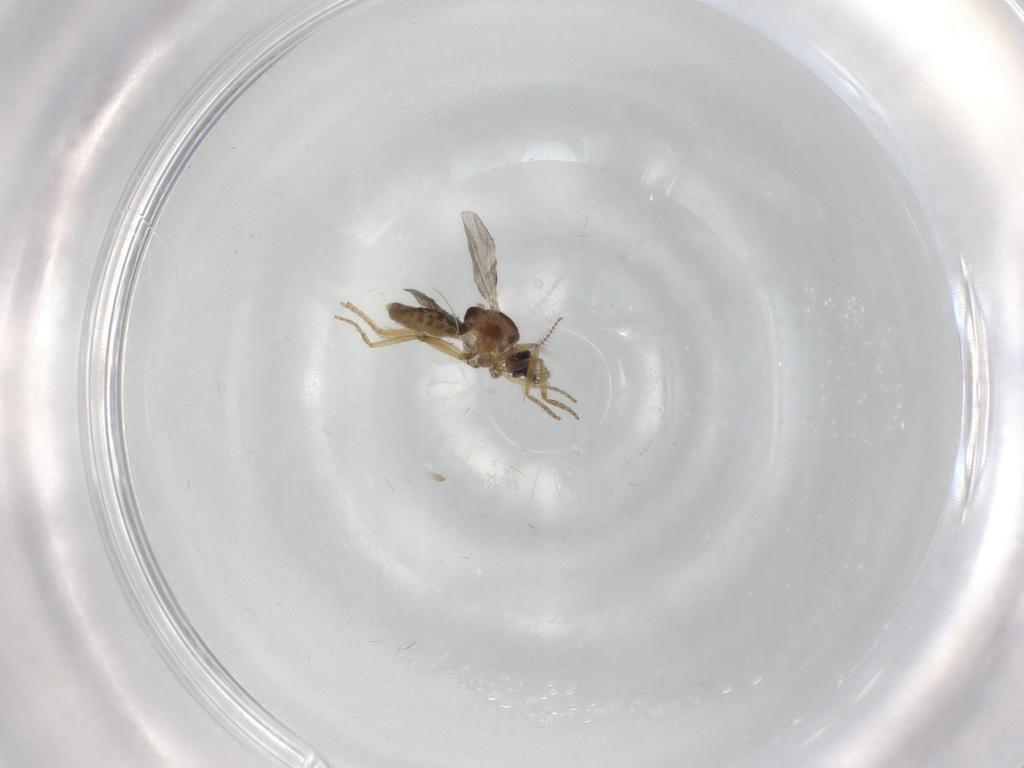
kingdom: Animalia
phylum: Arthropoda
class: Insecta
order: Diptera
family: Ceratopogonidae
